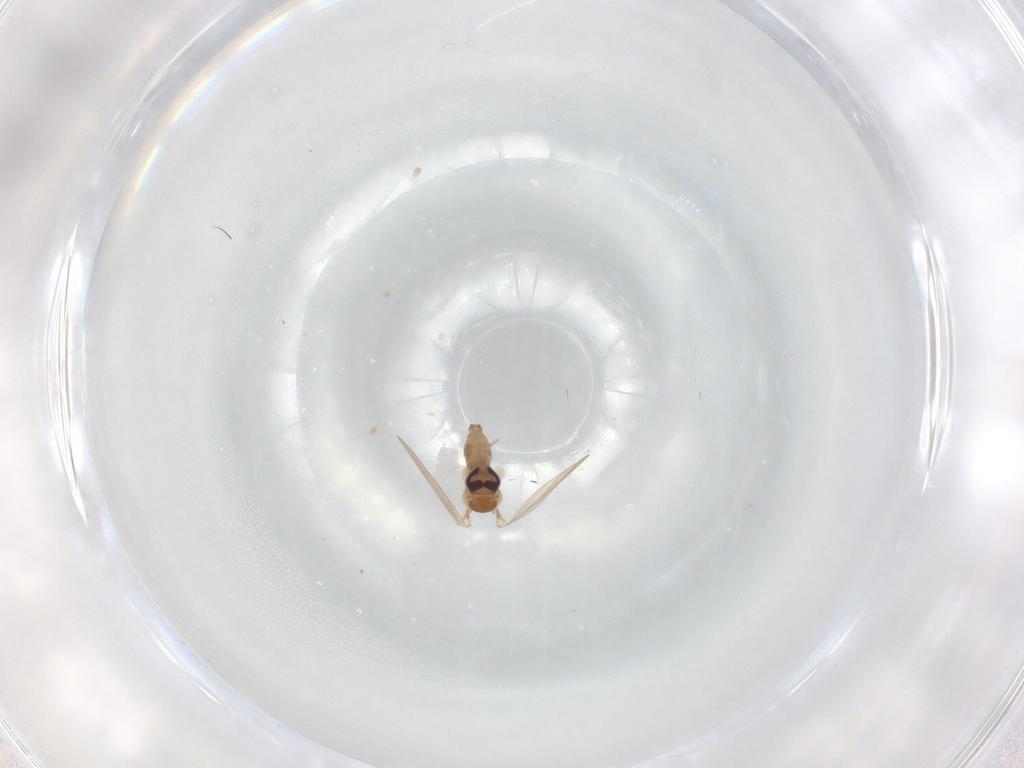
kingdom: Animalia
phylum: Arthropoda
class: Insecta
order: Diptera
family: Psychodidae
